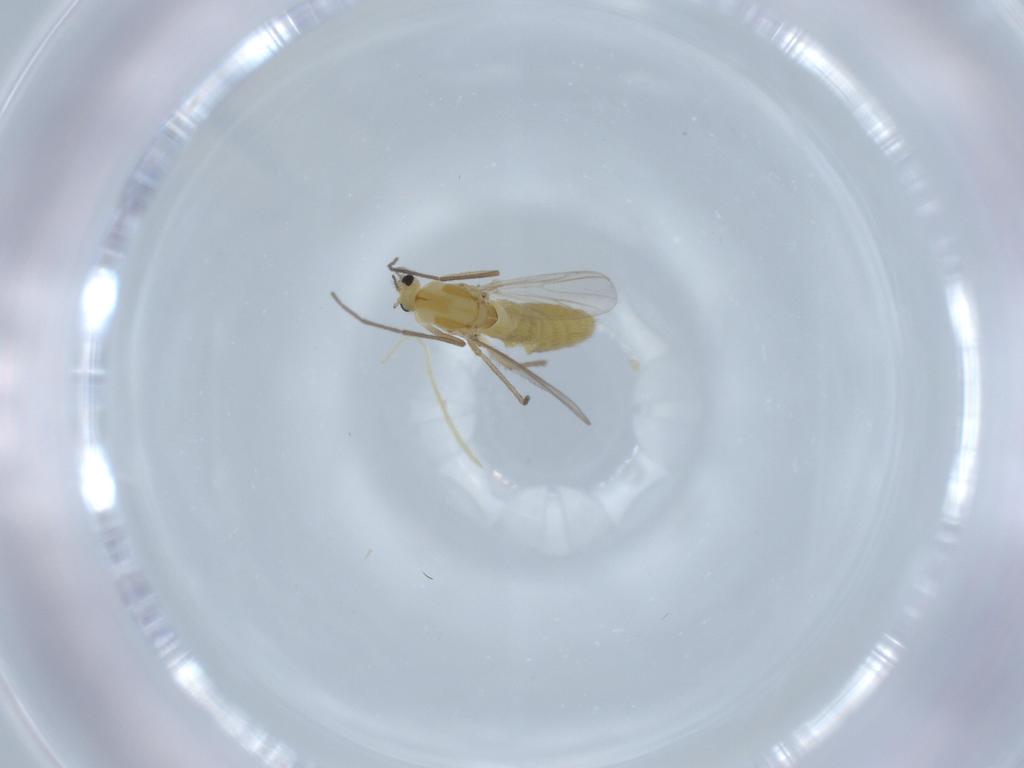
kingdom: Animalia
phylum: Arthropoda
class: Insecta
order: Diptera
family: Chironomidae
